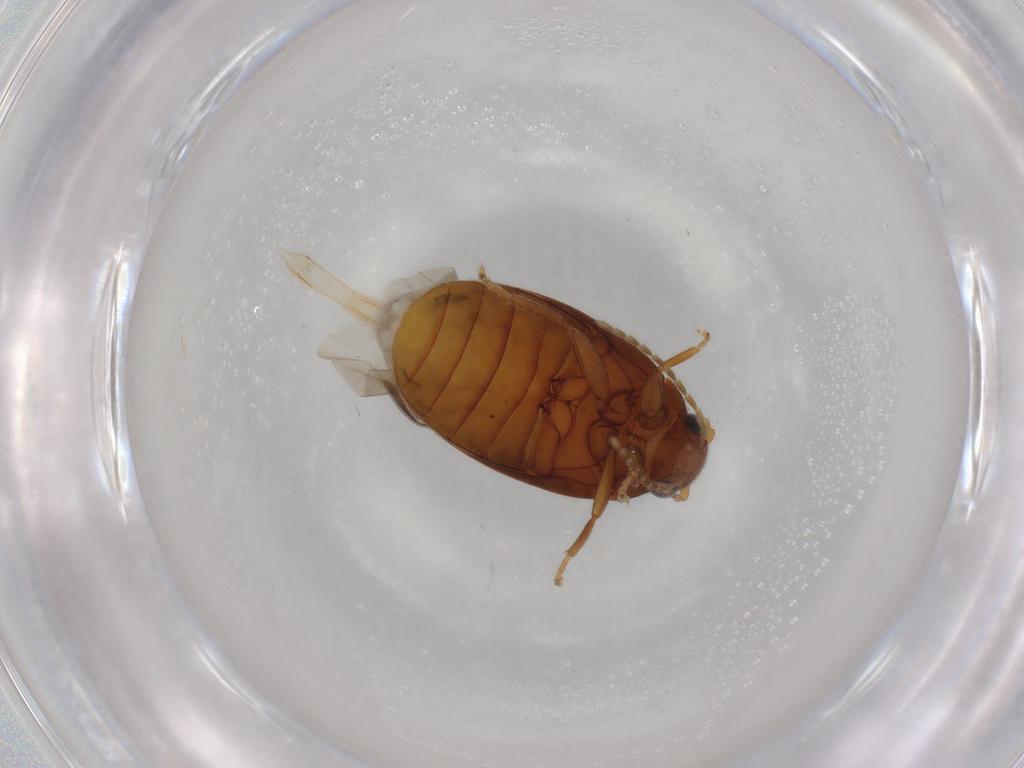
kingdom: Animalia
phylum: Arthropoda
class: Insecta
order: Coleoptera
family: Scirtidae
